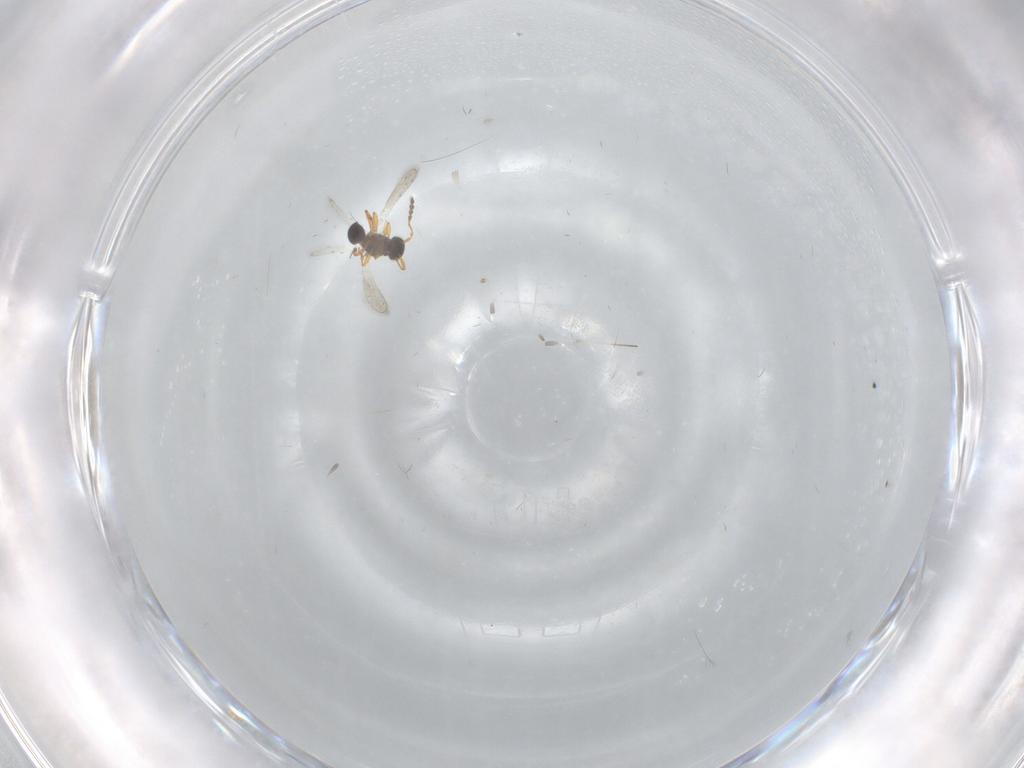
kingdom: Animalia
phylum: Arthropoda
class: Insecta
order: Hymenoptera
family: Platygastridae
